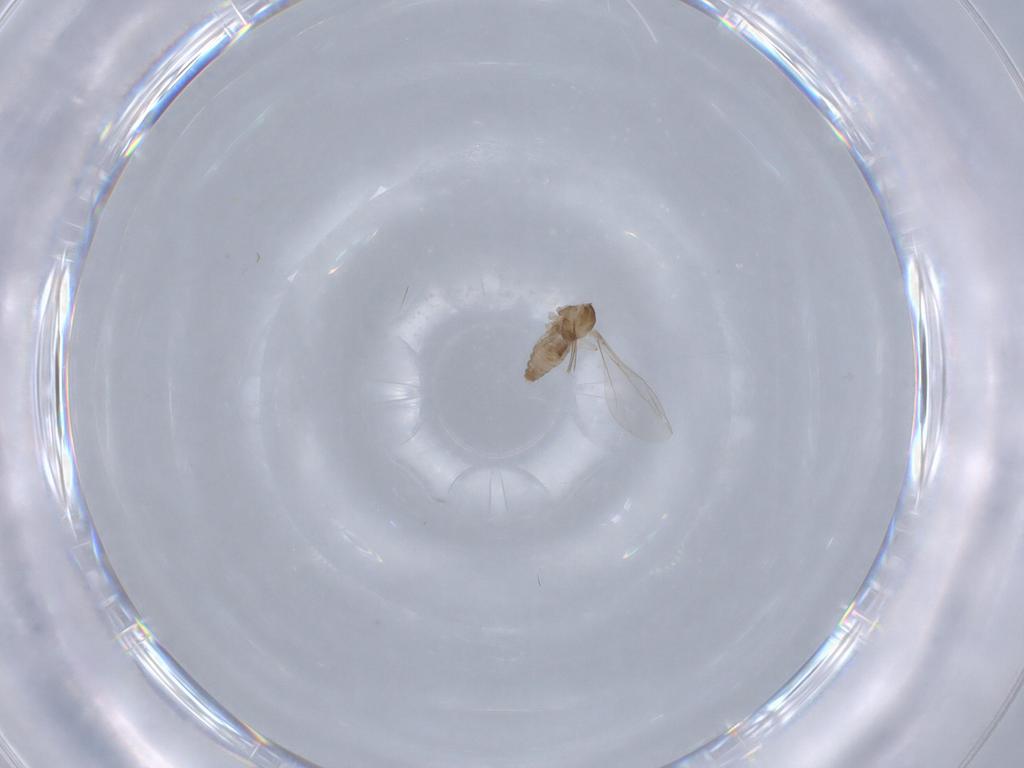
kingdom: Animalia
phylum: Arthropoda
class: Insecta
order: Diptera
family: Cecidomyiidae
